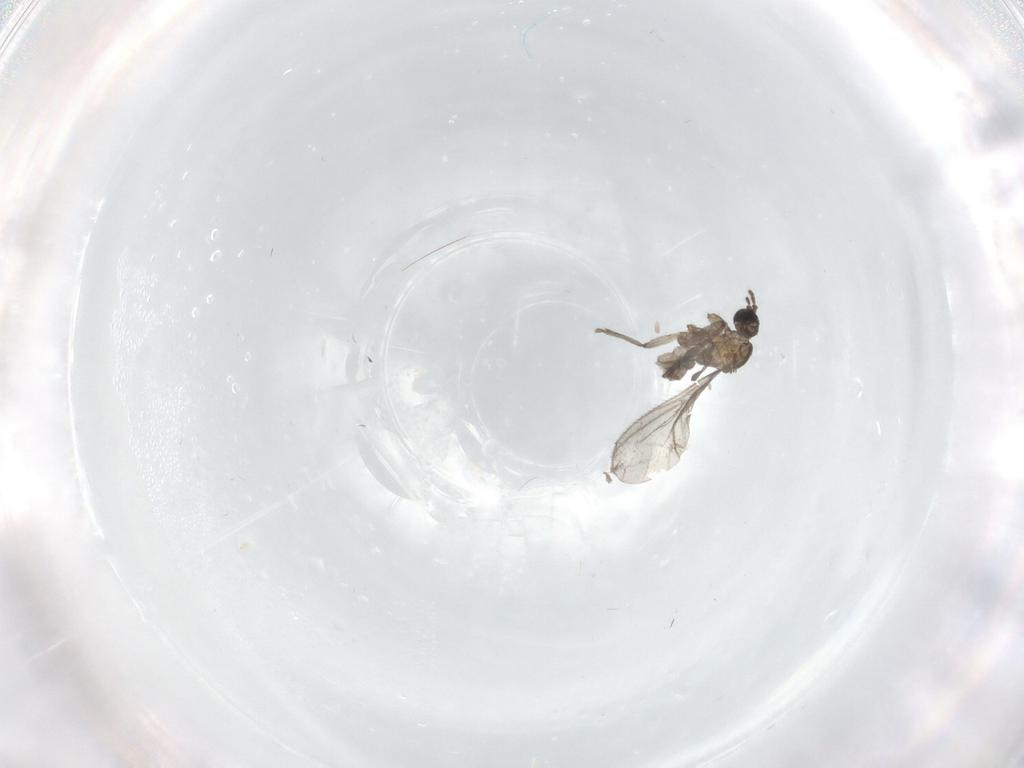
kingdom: Animalia
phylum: Arthropoda
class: Insecta
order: Diptera
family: Sciaridae
